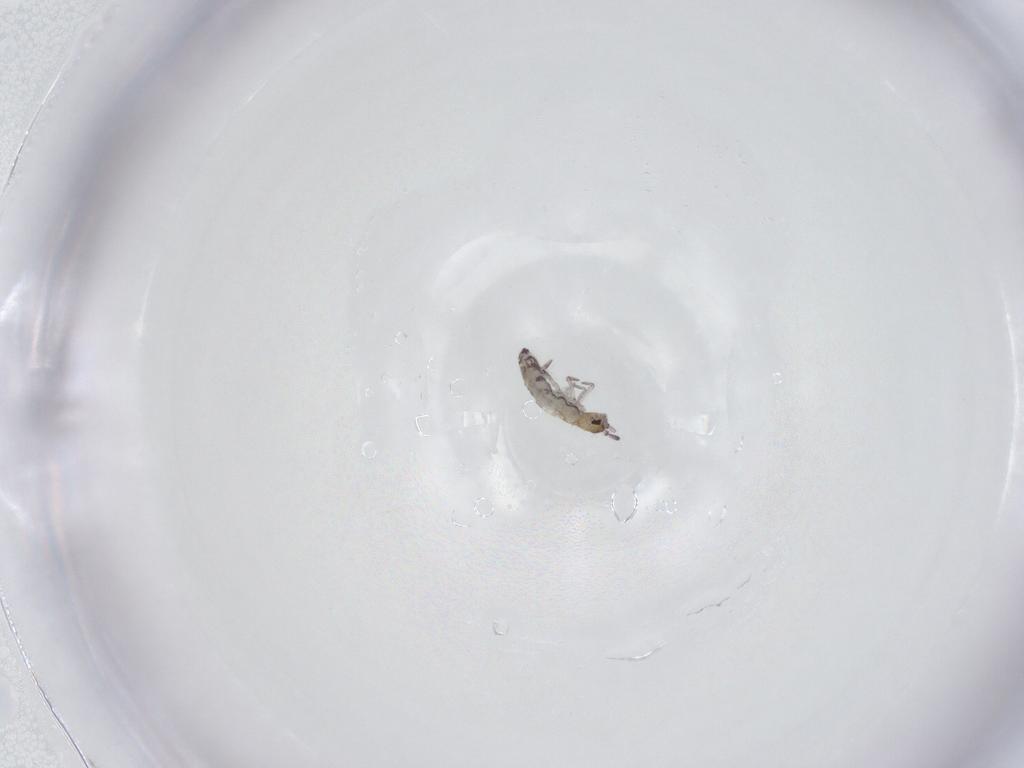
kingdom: Animalia
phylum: Arthropoda
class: Collembola
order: Entomobryomorpha
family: Entomobryidae
